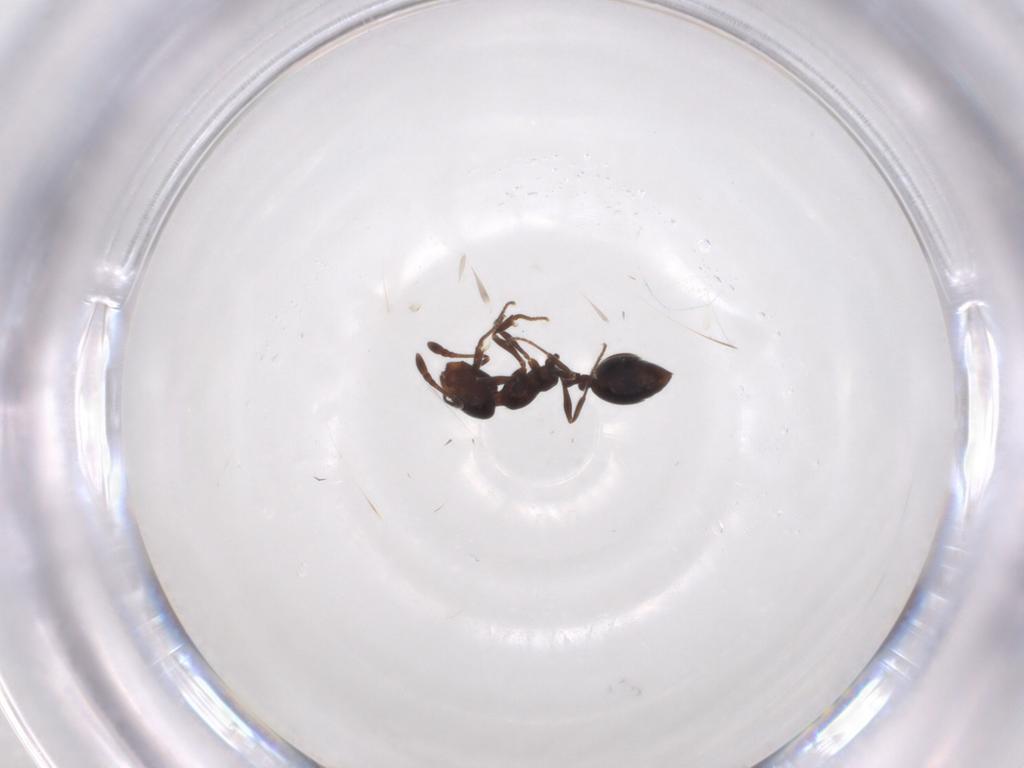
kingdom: Animalia
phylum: Arthropoda
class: Insecta
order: Hymenoptera
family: Formicidae
